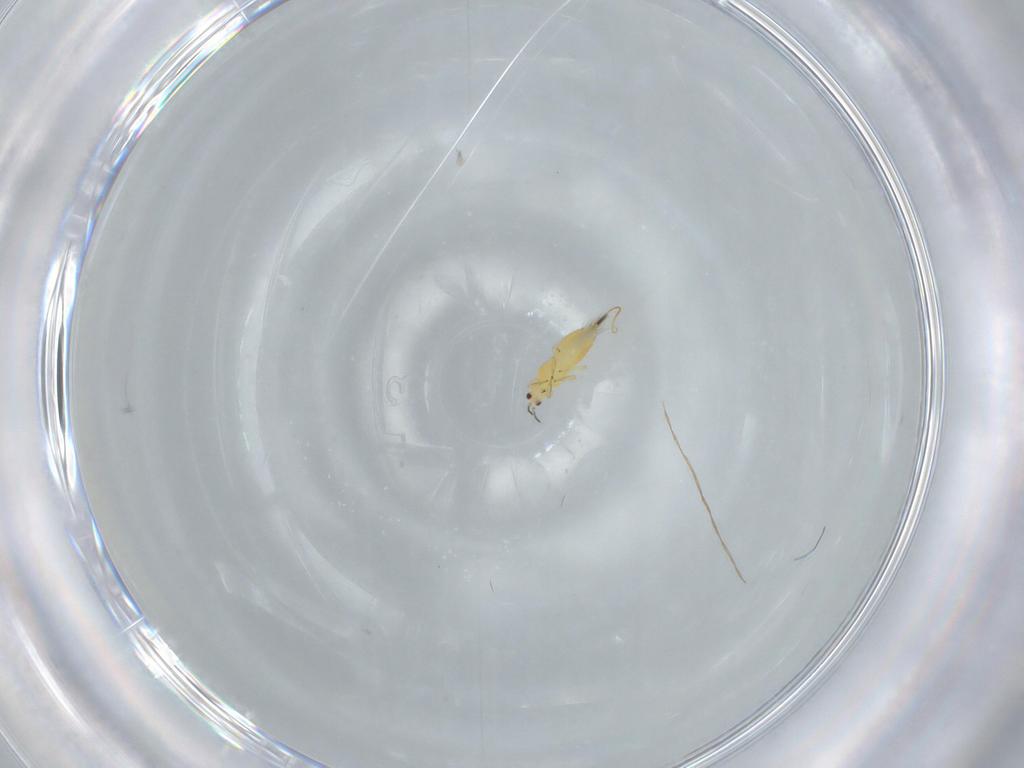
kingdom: Animalia
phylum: Arthropoda
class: Insecta
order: Thysanoptera
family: Thripidae
